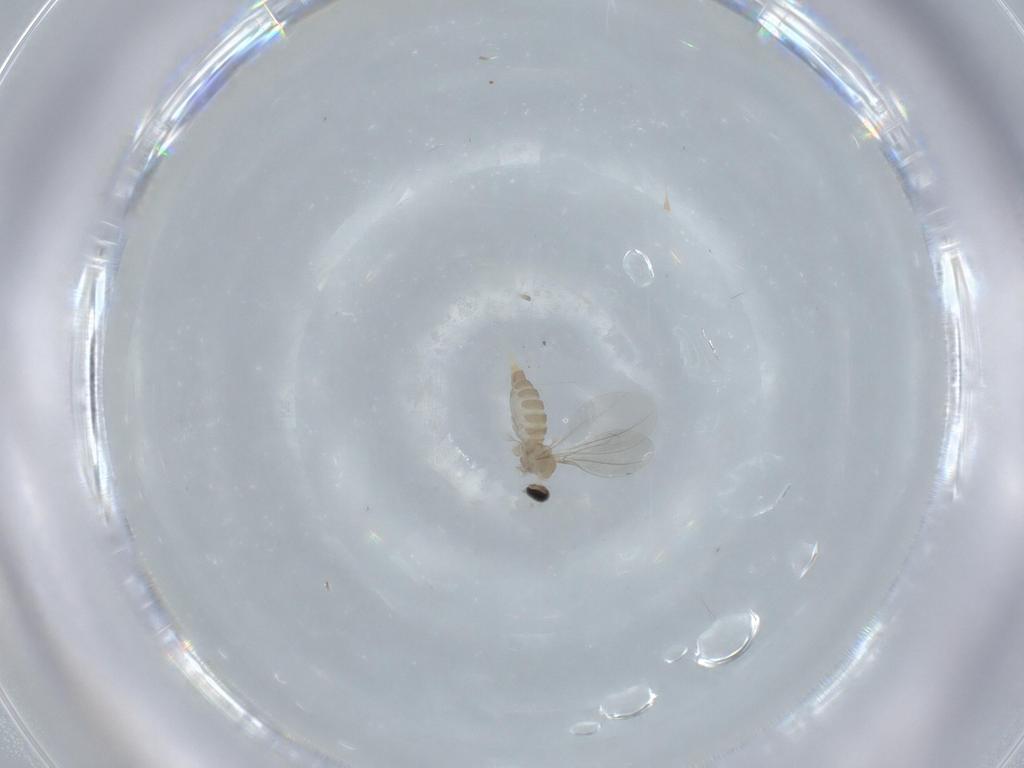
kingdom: Animalia
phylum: Arthropoda
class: Insecta
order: Diptera
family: Cecidomyiidae
